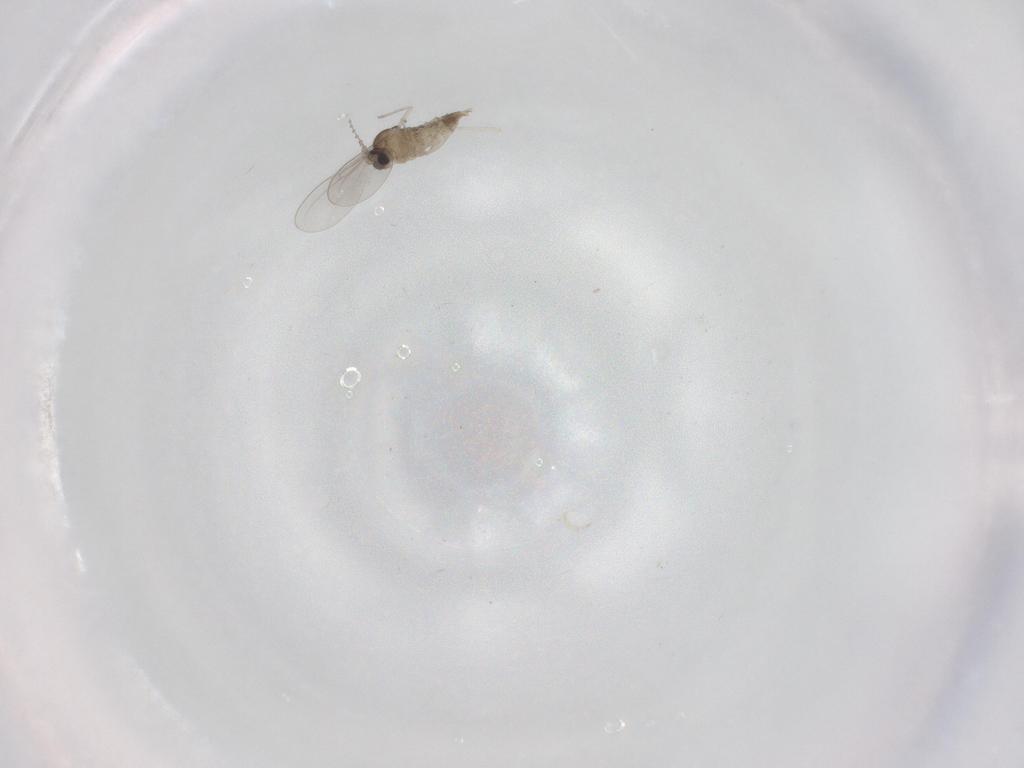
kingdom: Animalia
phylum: Arthropoda
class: Insecta
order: Diptera
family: Cecidomyiidae
